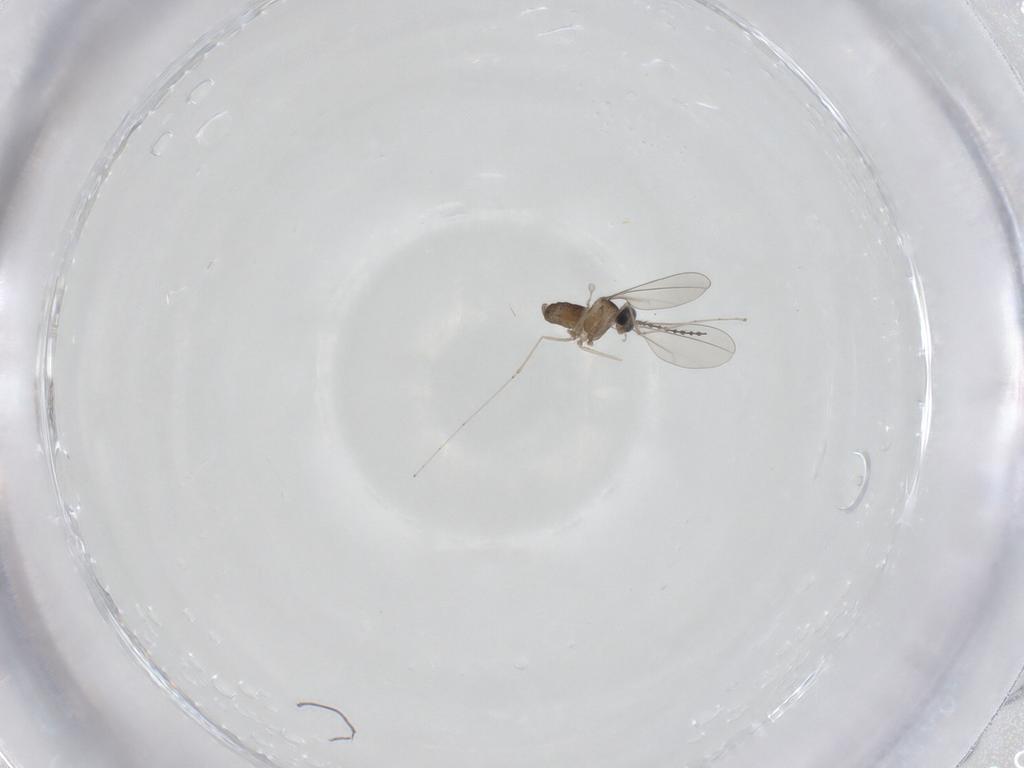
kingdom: Animalia
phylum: Arthropoda
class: Insecta
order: Diptera
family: Cecidomyiidae
